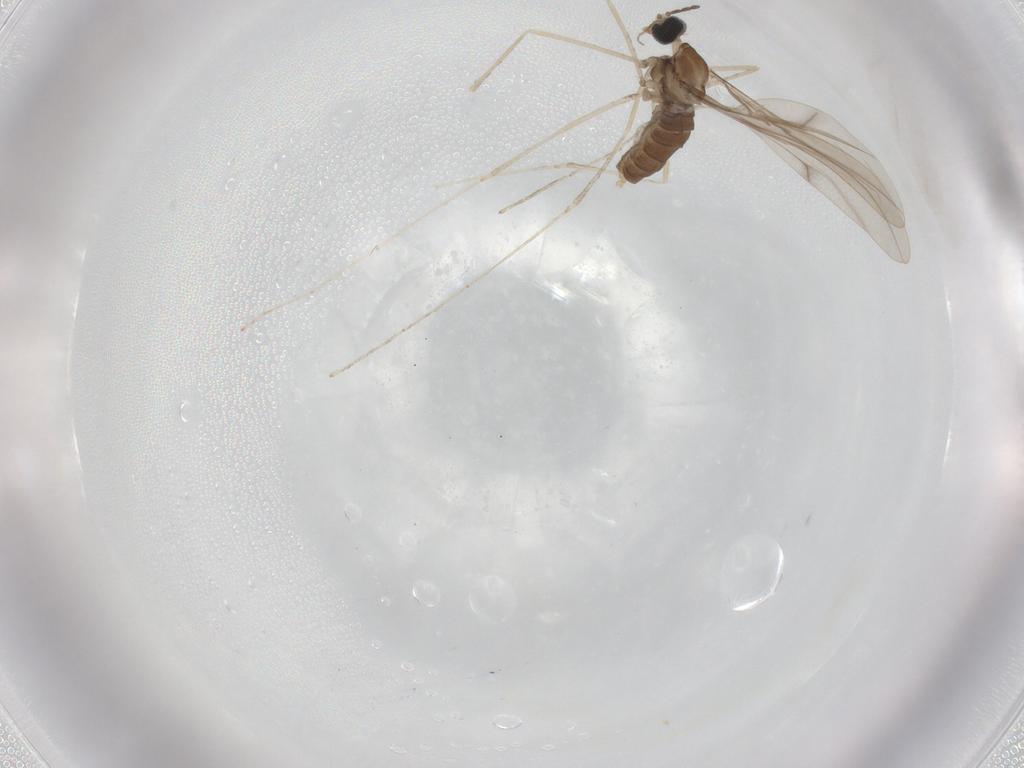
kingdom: Animalia
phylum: Arthropoda
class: Insecta
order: Diptera
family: Cecidomyiidae
